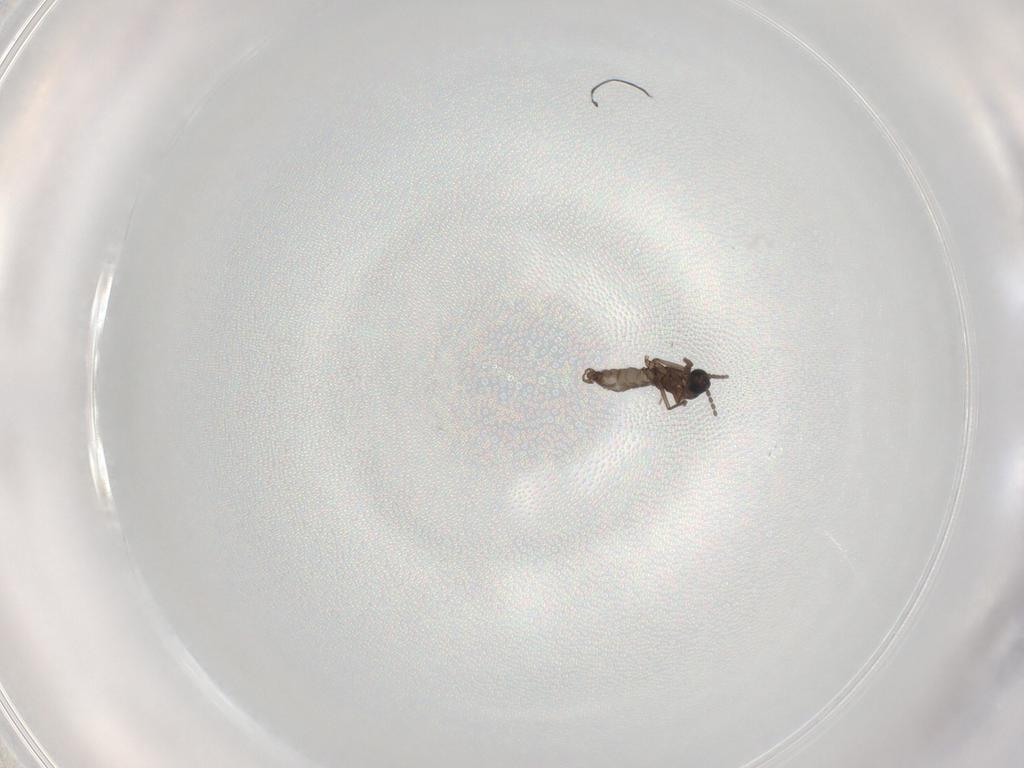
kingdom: Animalia
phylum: Arthropoda
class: Insecta
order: Diptera
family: Sciaridae
